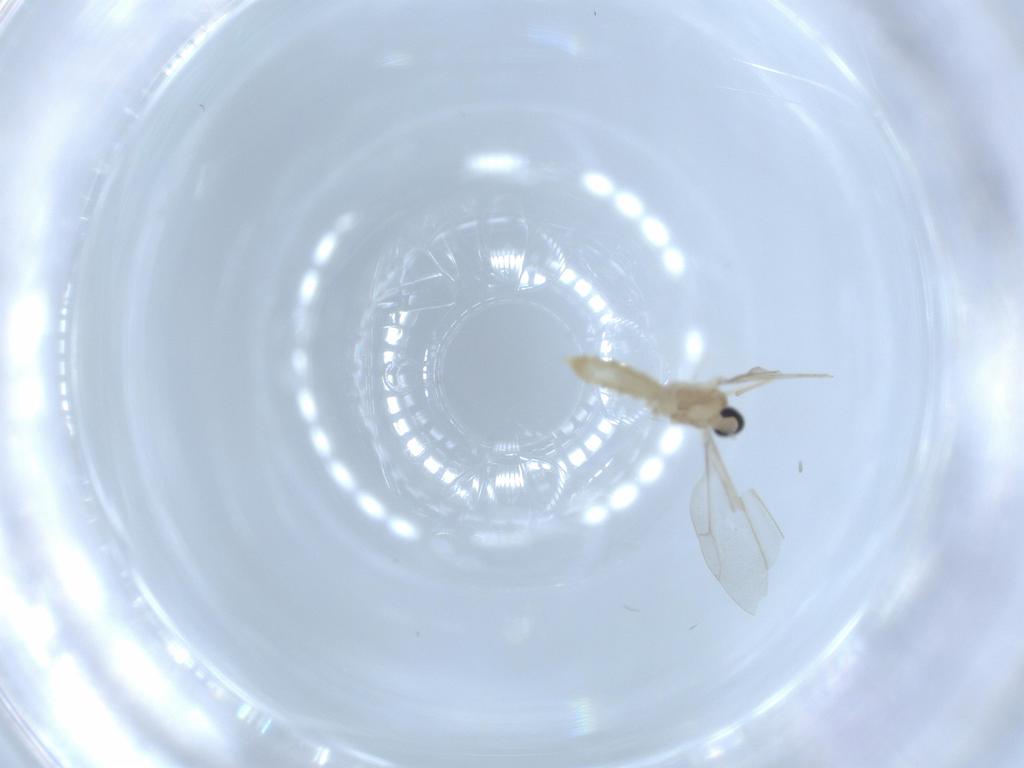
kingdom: Animalia
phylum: Arthropoda
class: Insecta
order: Diptera
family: Cecidomyiidae
